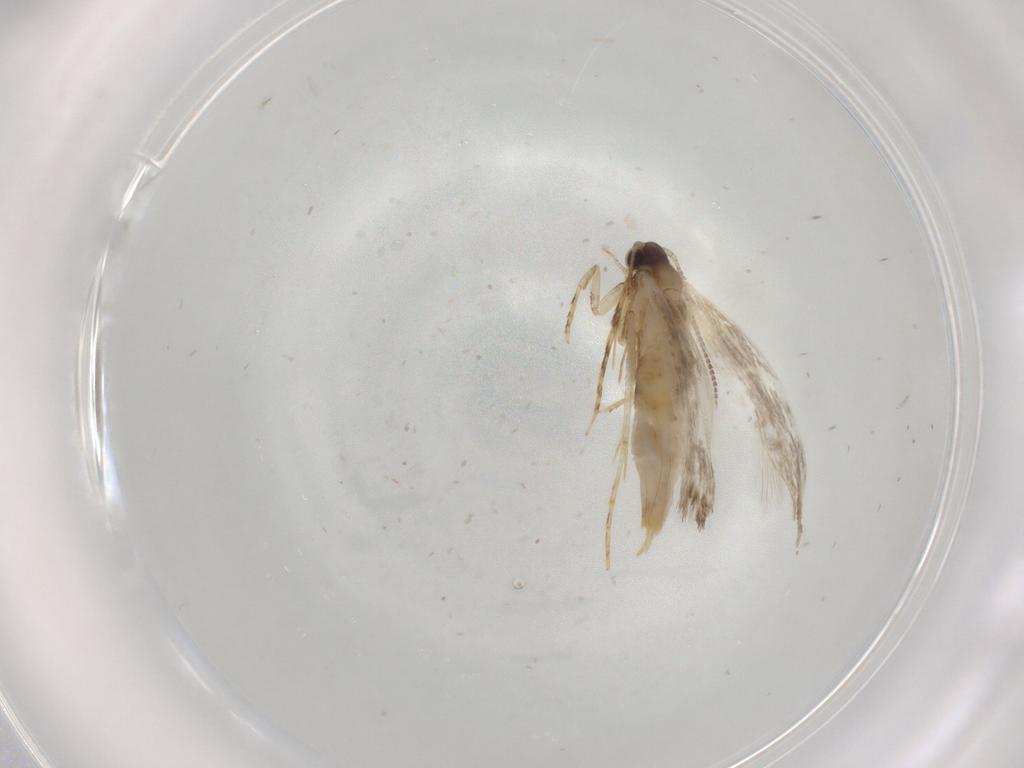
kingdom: Animalia
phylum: Arthropoda
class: Insecta
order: Lepidoptera
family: Tineidae
